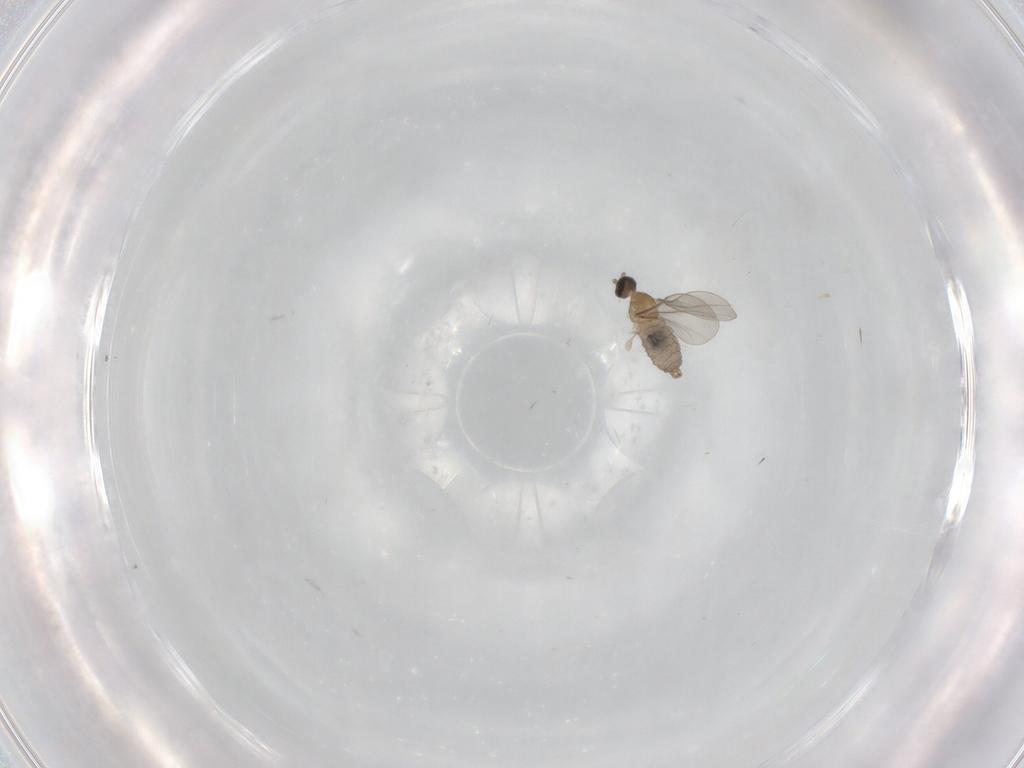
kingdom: Animalia
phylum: Arthropoda
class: Insecta
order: Diptera
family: Cecidomyiidae
